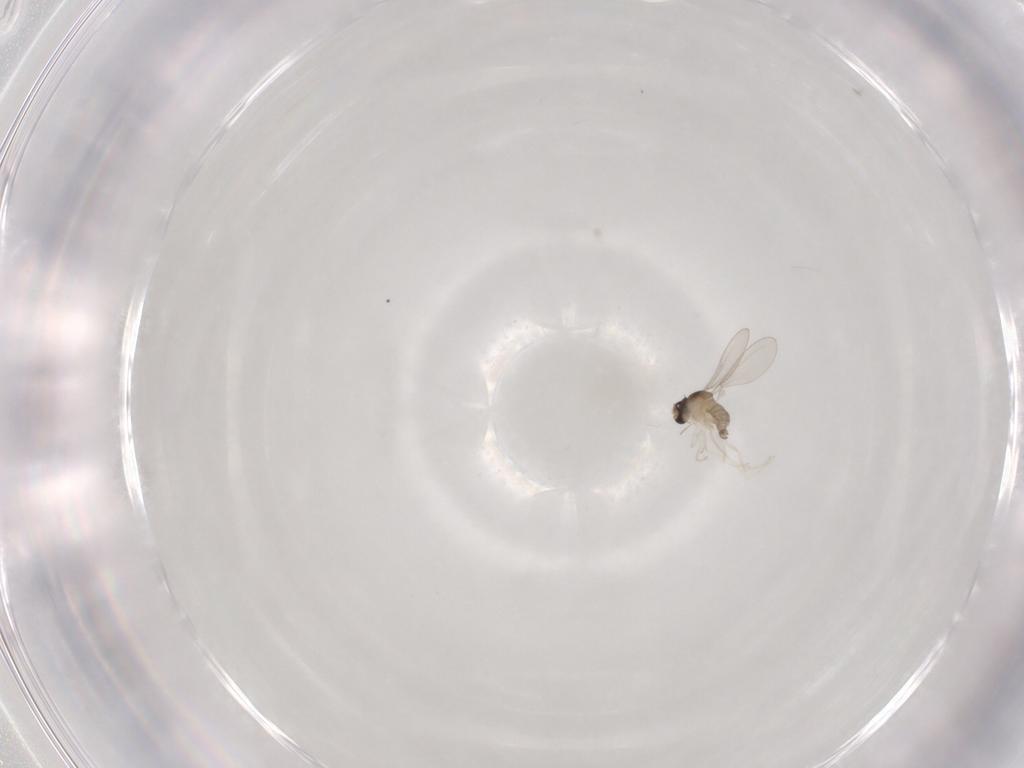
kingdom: Animalia
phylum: Arthropoda
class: Insecta
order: Diptera
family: Cecidomyiidae
